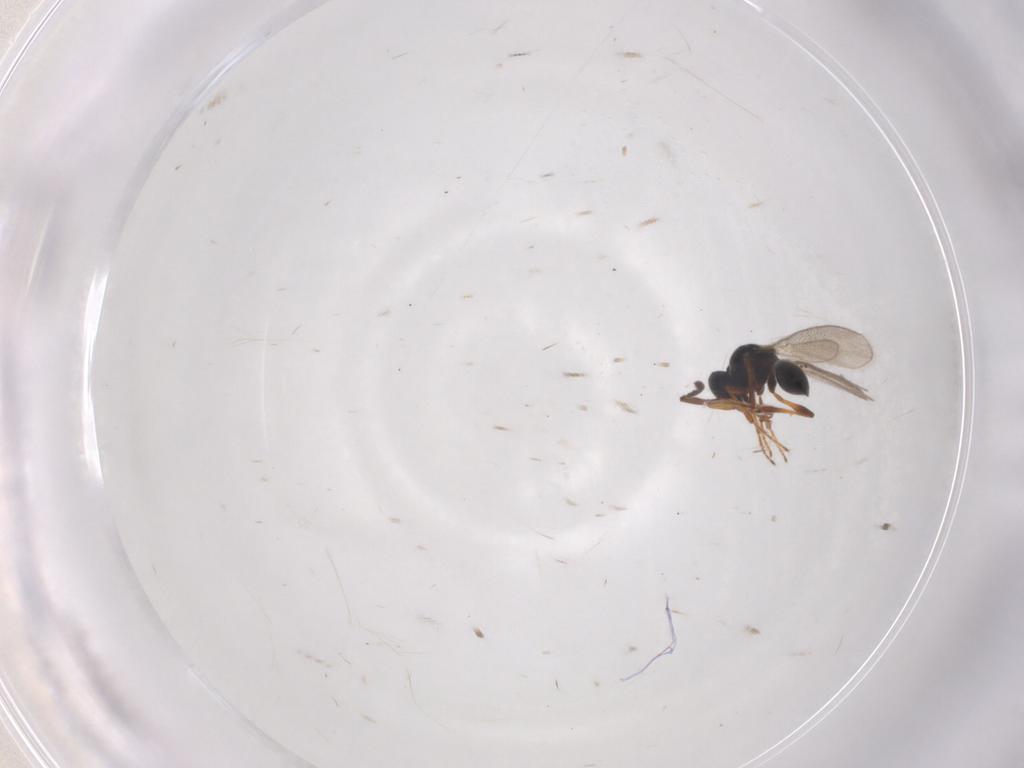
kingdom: Animalia
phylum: Arthropoda
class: Insecta
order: Hymenoptera
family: Platygastridae
